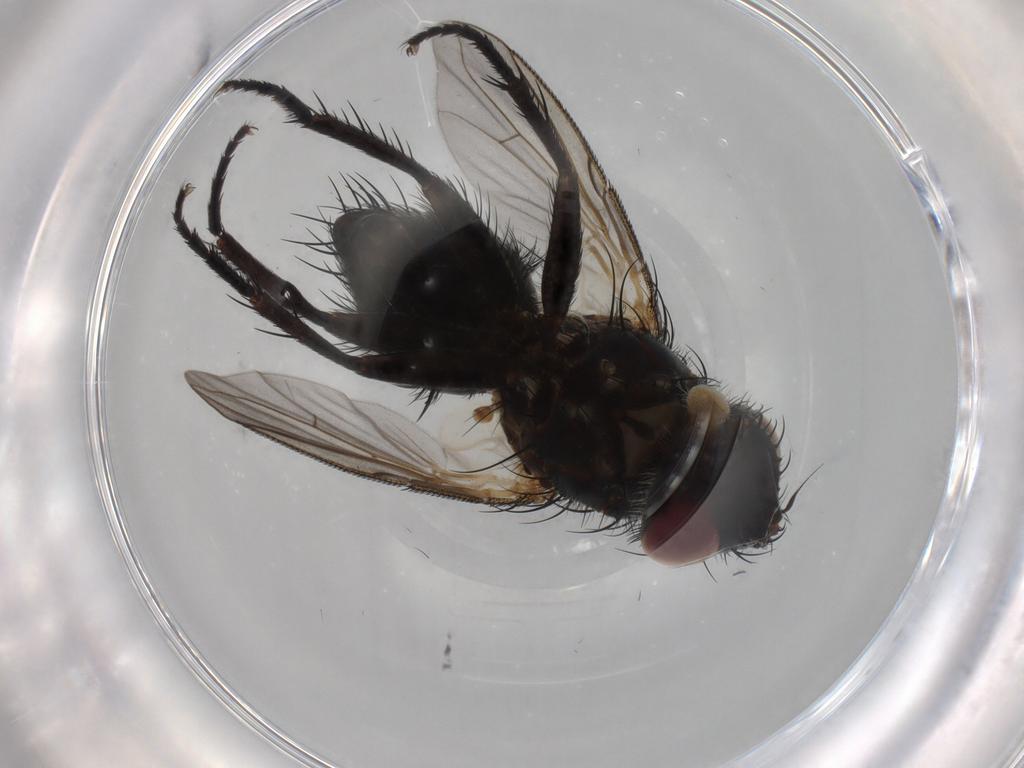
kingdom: Animalia
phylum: Arthropoda
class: Insecta
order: Diptera
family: Tachinidae
